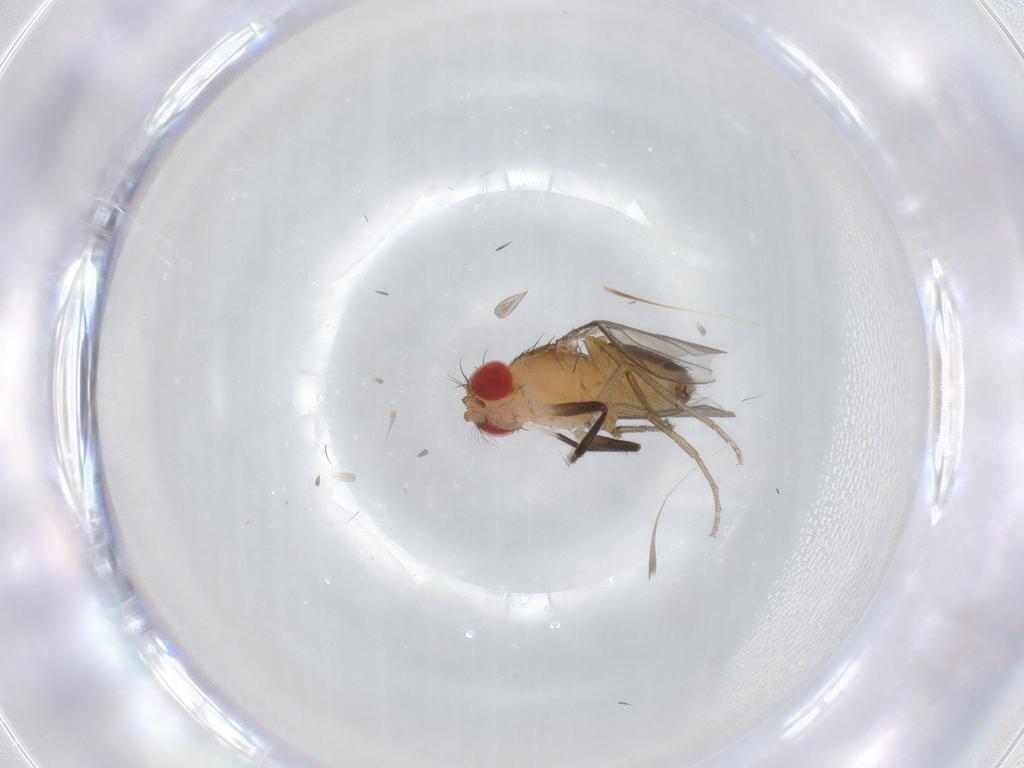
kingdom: Animalia
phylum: Arthropoda
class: Insecta
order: Diptera
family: Drosophilidae
